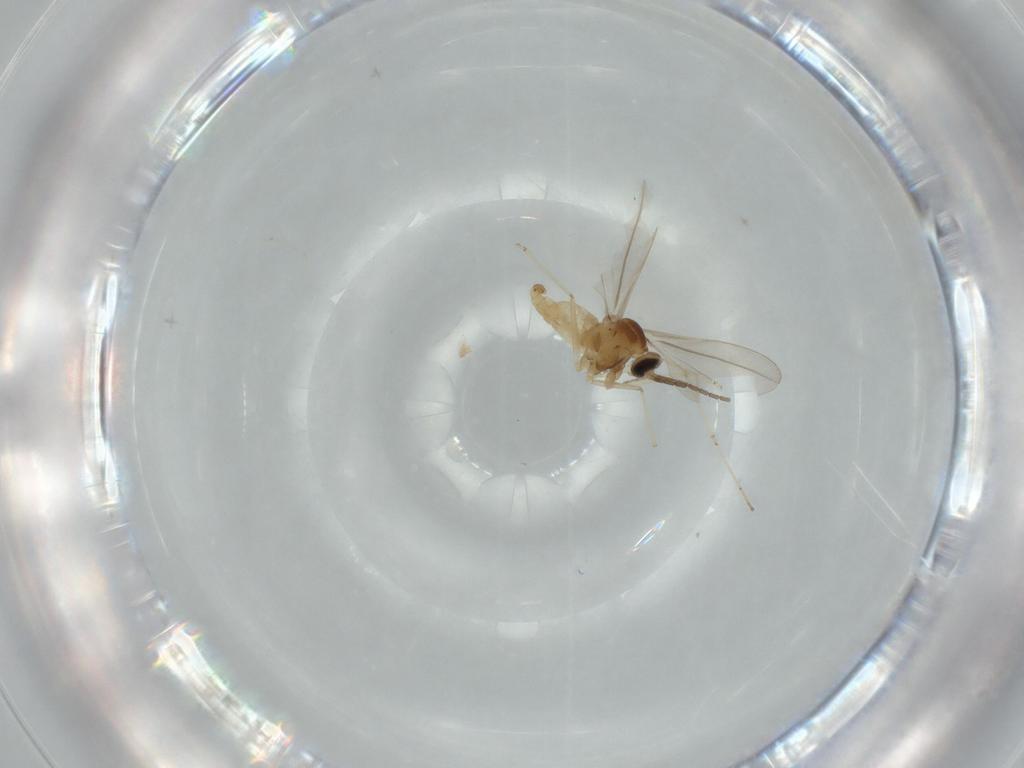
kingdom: Animalia
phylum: Arthropoda
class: Insecta
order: Diptera
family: Cecidomyiidae
